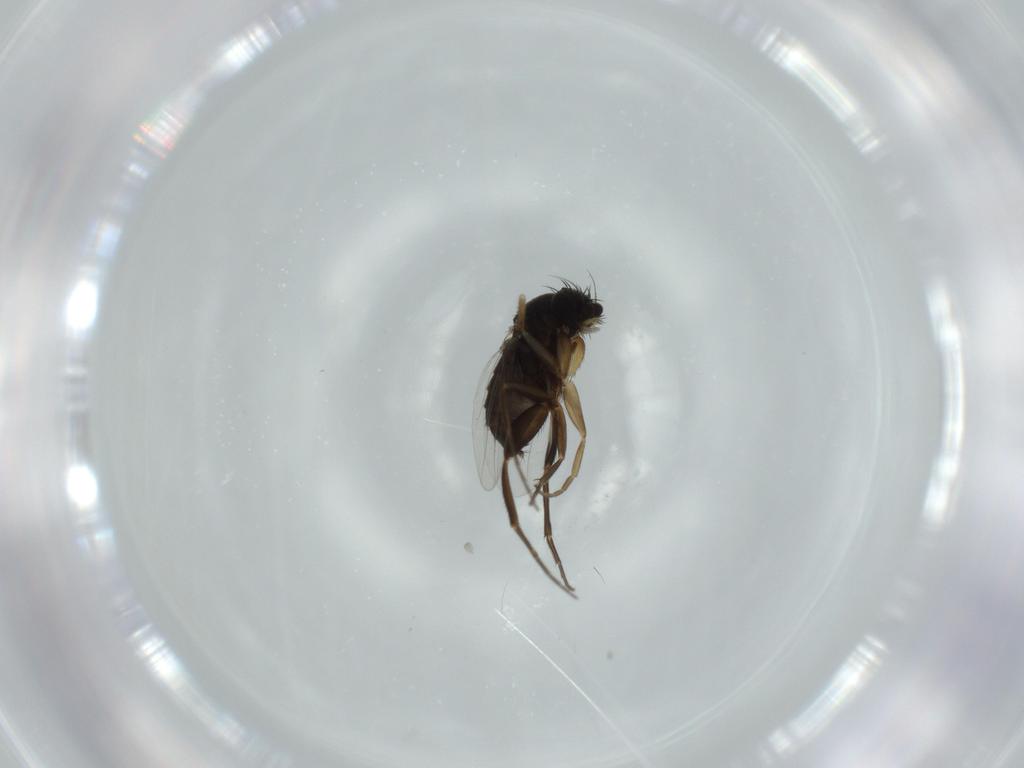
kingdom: Animalia
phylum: Arthropoda
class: Insecta
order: Diptera
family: Phoridae
